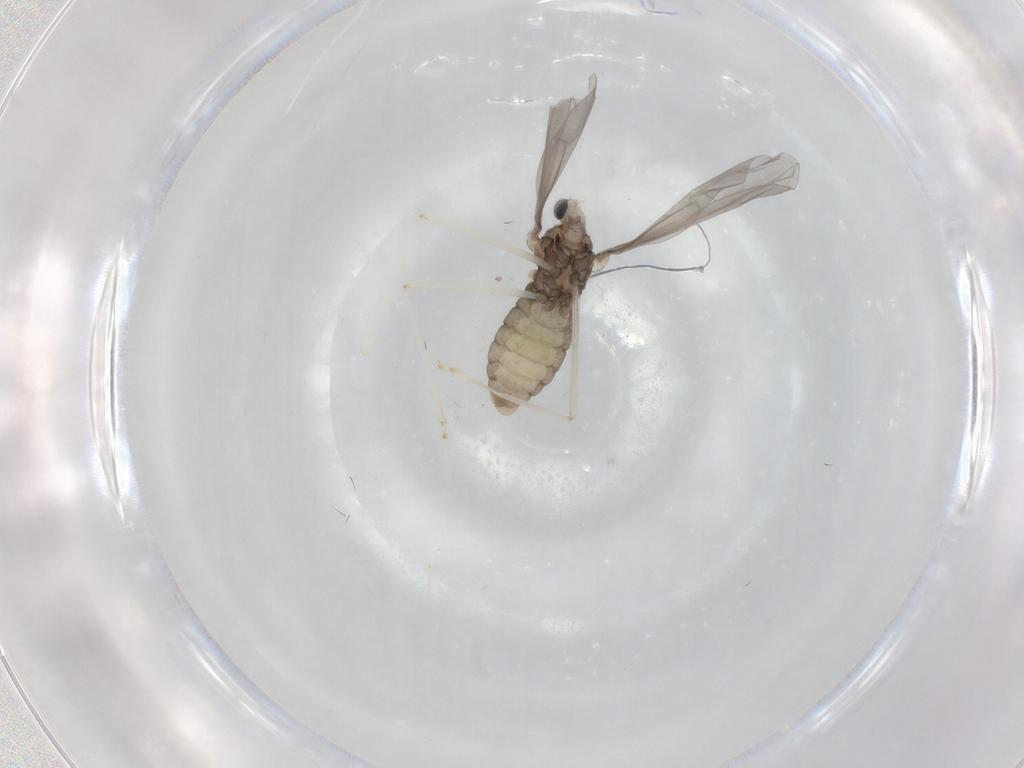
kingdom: Animalia
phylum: Arthropoda
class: Insecta
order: Diptera
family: Cecidomyiidae
